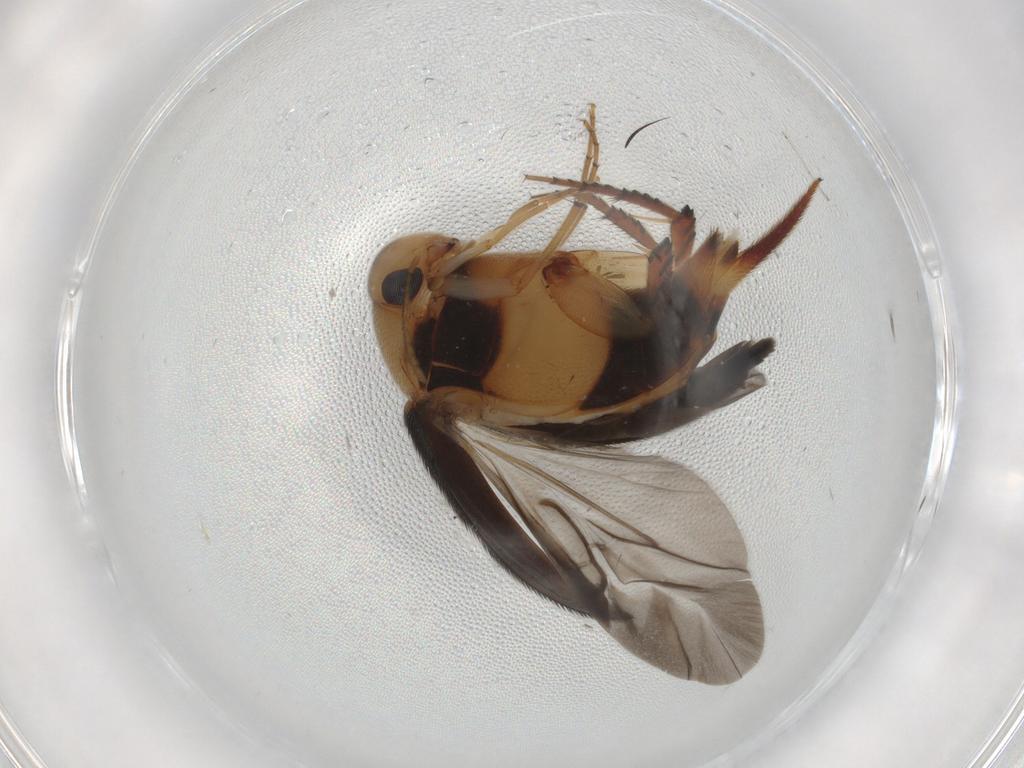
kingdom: Animalia
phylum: Arthropoda
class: Insecta
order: Coleoptera
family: Mordellidae
